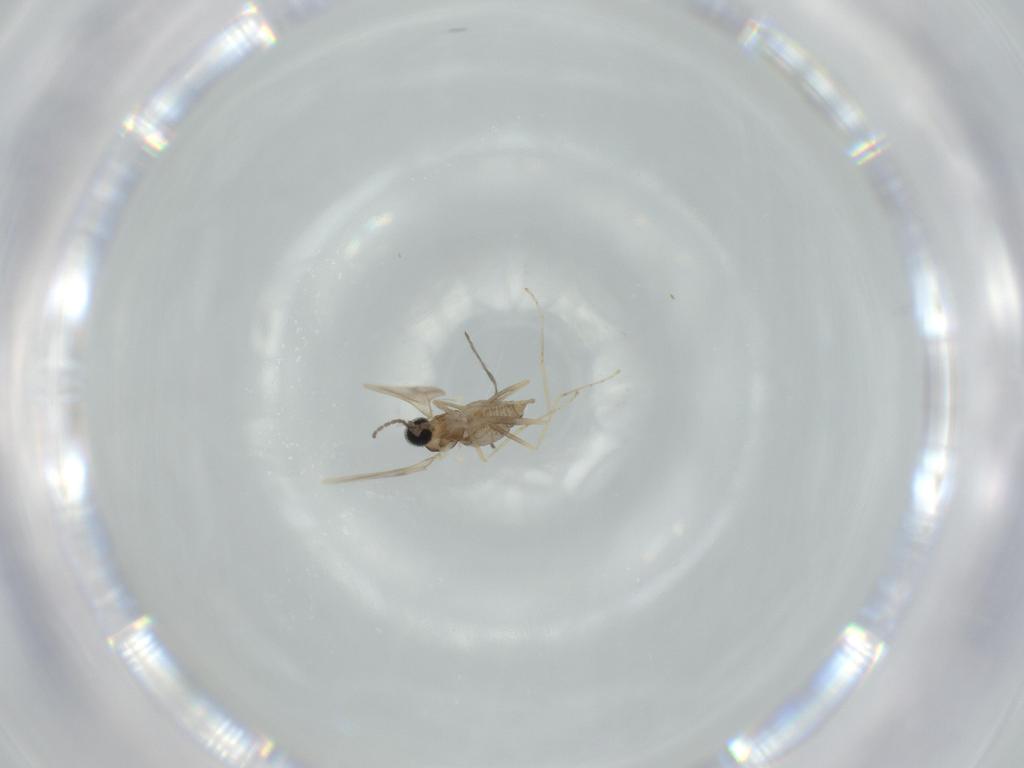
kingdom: Animalia
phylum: Arthropoda
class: Insecta
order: Diptera
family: Cecidomyiidae
